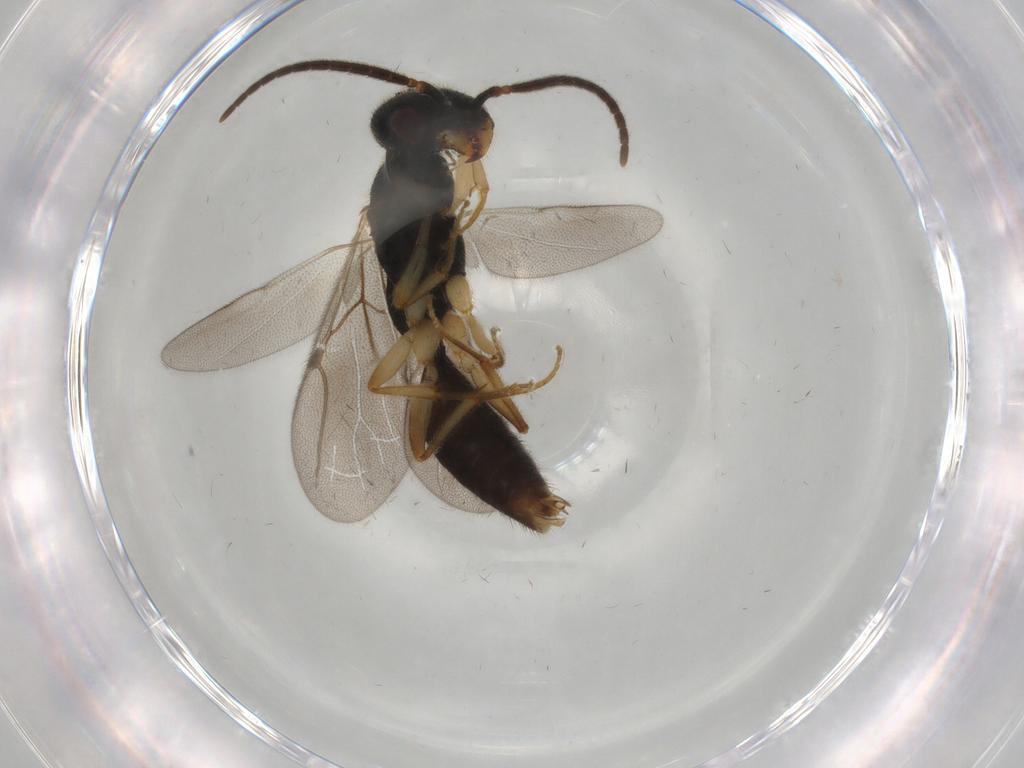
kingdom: Animalia
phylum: Arthropoda
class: Insecta
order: Hymenoptera
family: Bethylidae
